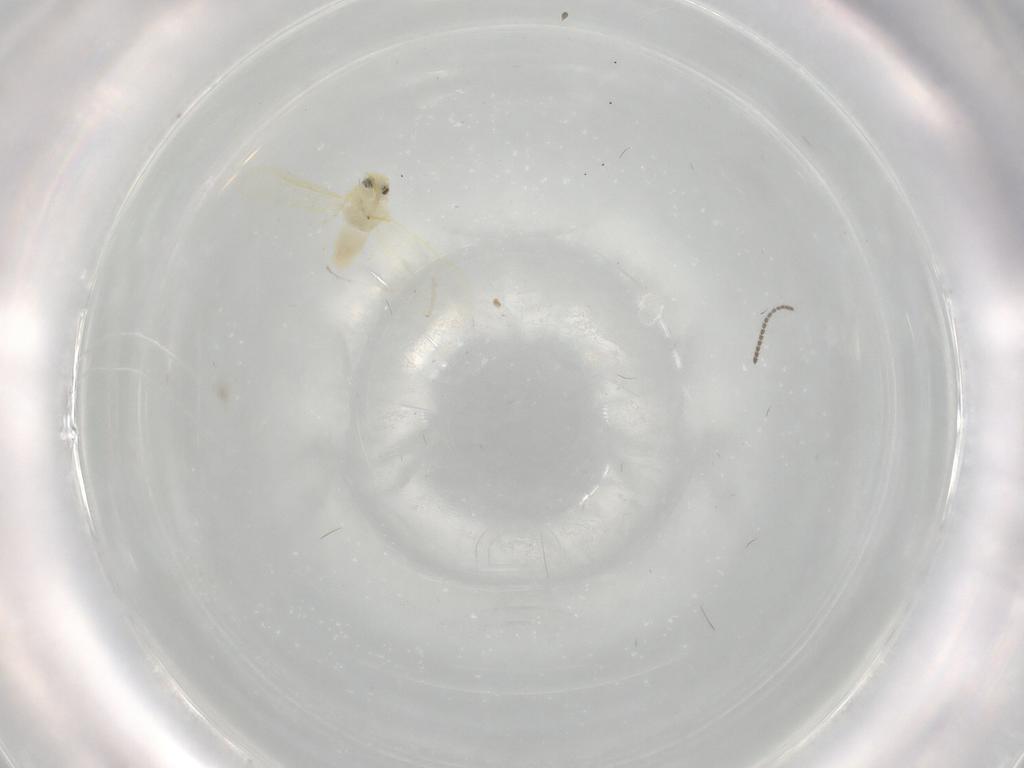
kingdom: Animalia
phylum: Arthropoda
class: Insecta
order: Hemiptera
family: Aleyrodidae
